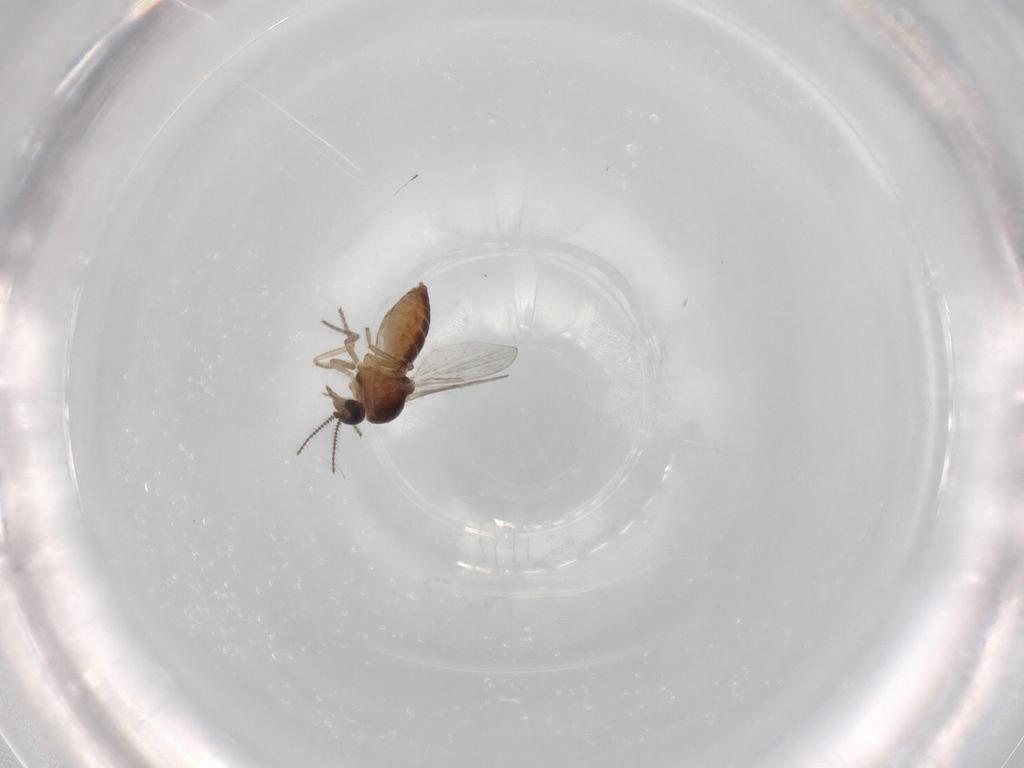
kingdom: Animalia
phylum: Arthropoda
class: Insecta
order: Diptera
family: Ceratopogonidae
